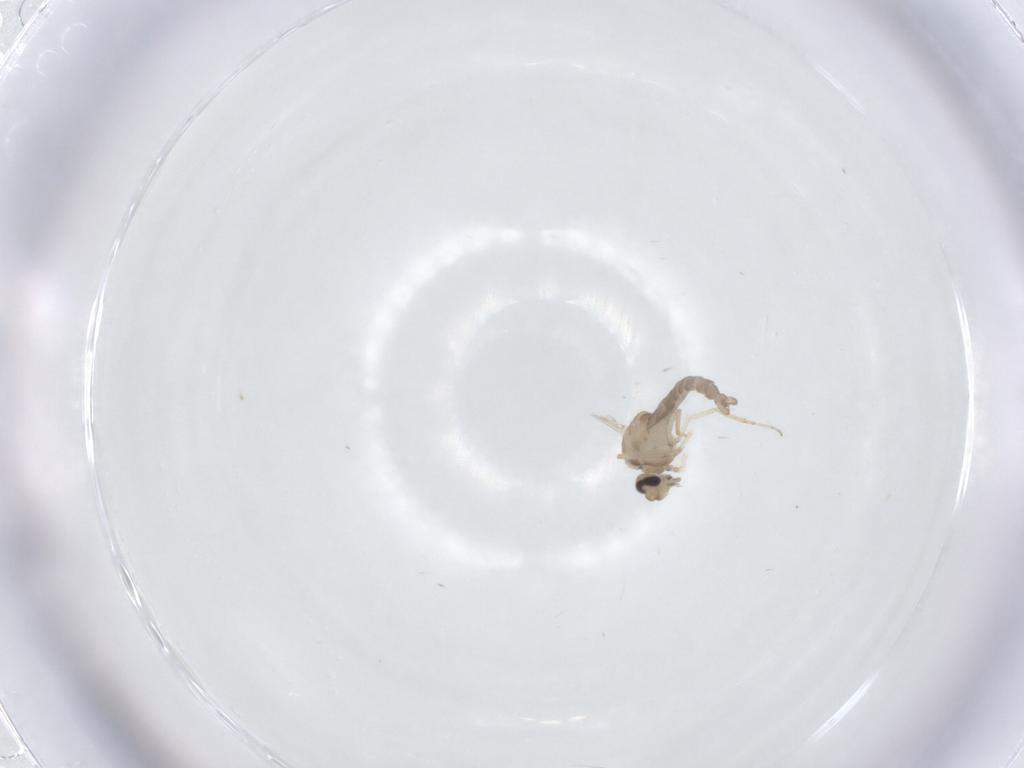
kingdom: Animalia
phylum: Arthropoda
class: Insecta
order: Diptera
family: Ceratopogonidae
